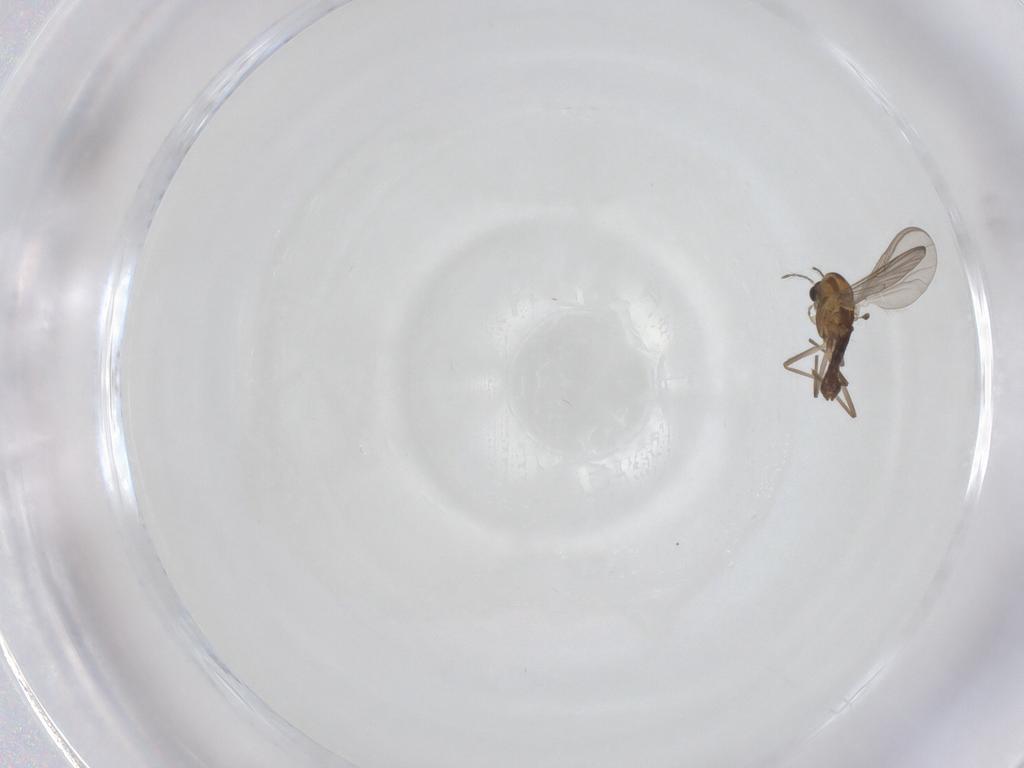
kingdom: Animalia
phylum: Arthropoda
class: Insecta
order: Diptera
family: Chironomidae
